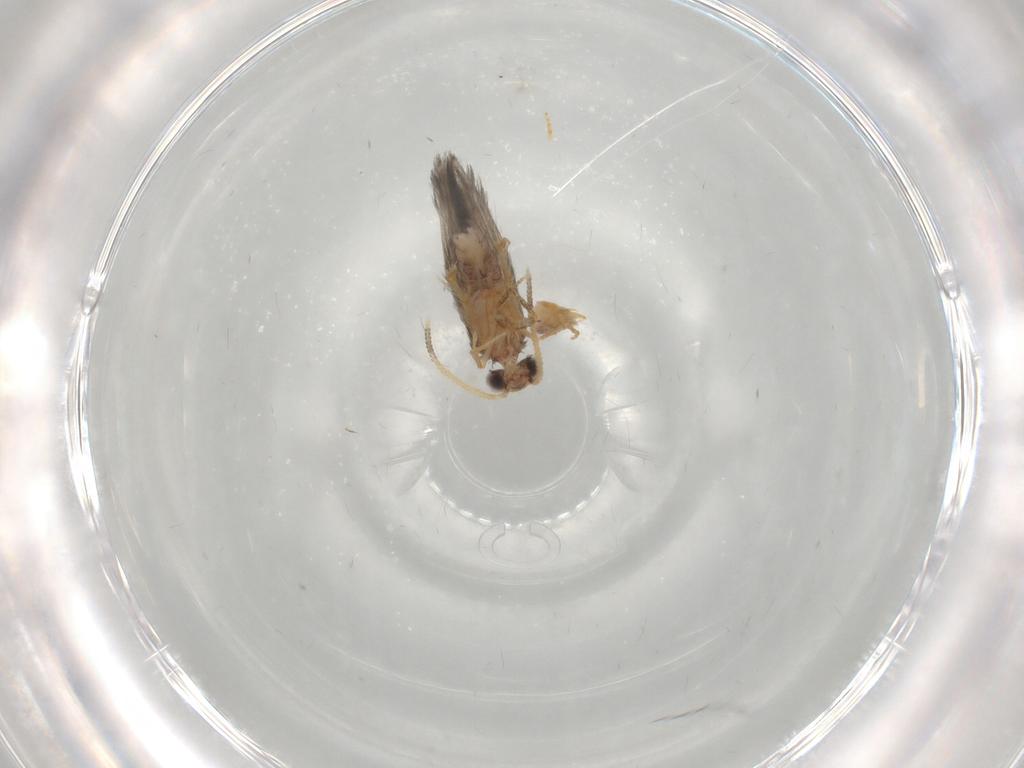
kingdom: Animalia
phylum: Arthropoda
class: Insecta
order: Trichoptera
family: Hydroptilidae
